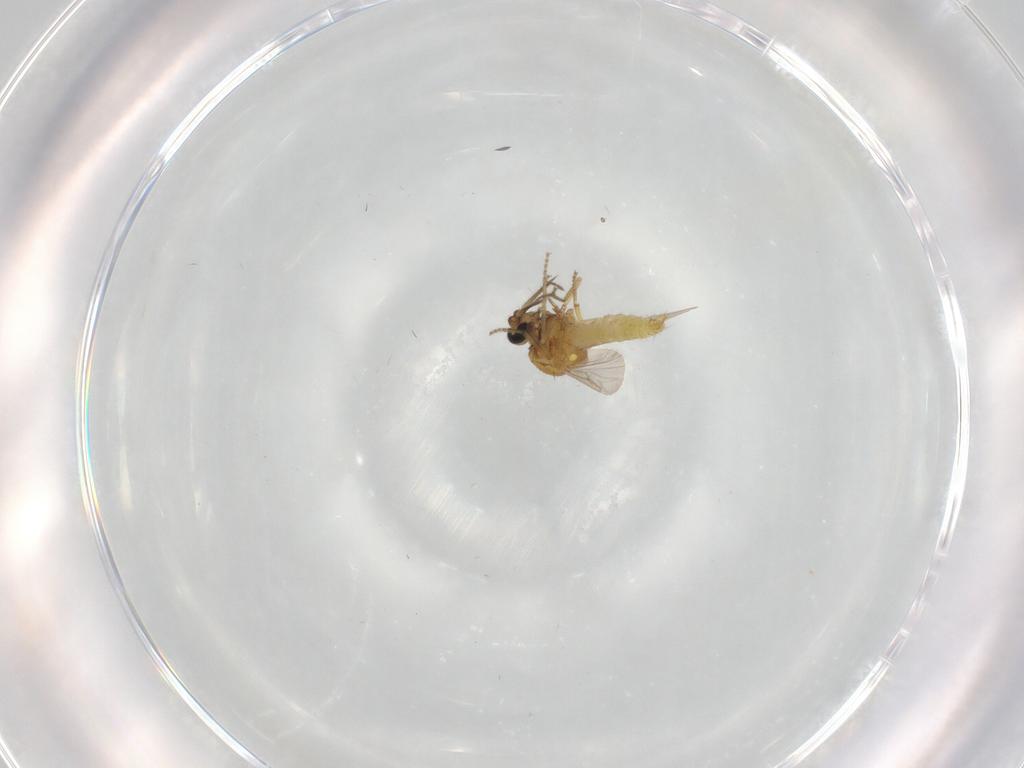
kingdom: Animalia
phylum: Arthropoda
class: Insecta
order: Diptera
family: Ceratopogonidae
